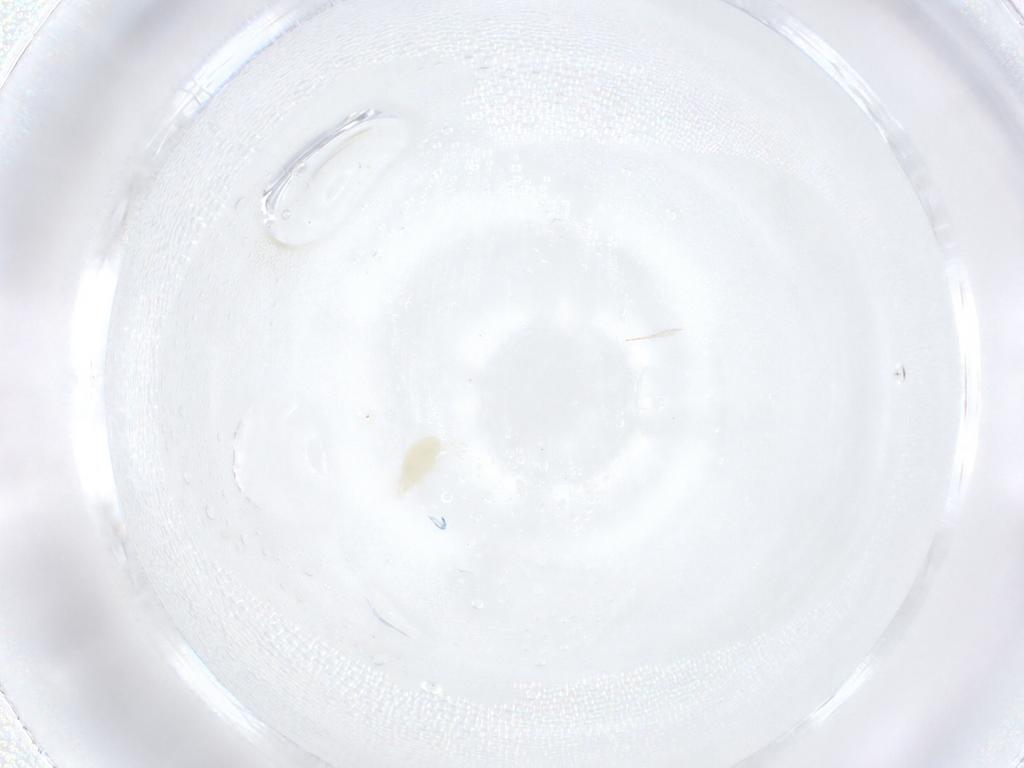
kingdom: Animalia
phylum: Arthropoda
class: Arachnida
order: Trombidiformes
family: Stigmaeidae
